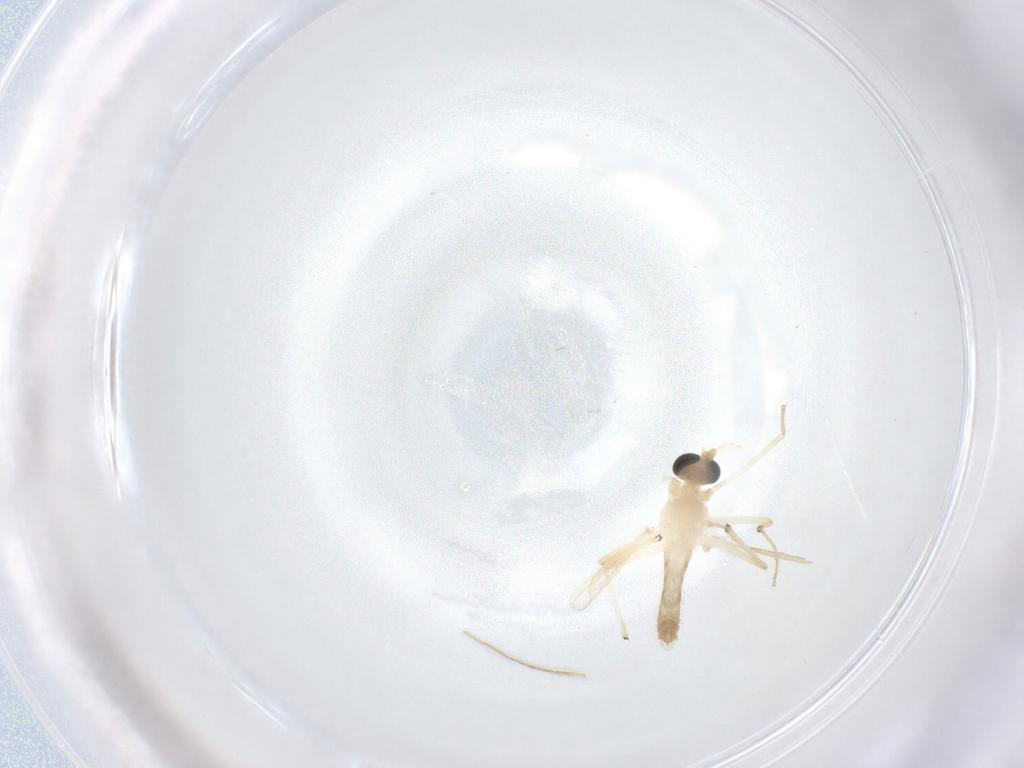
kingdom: Animalia
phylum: Arthropoda
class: Insecta
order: Diptera
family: Chironomidae
